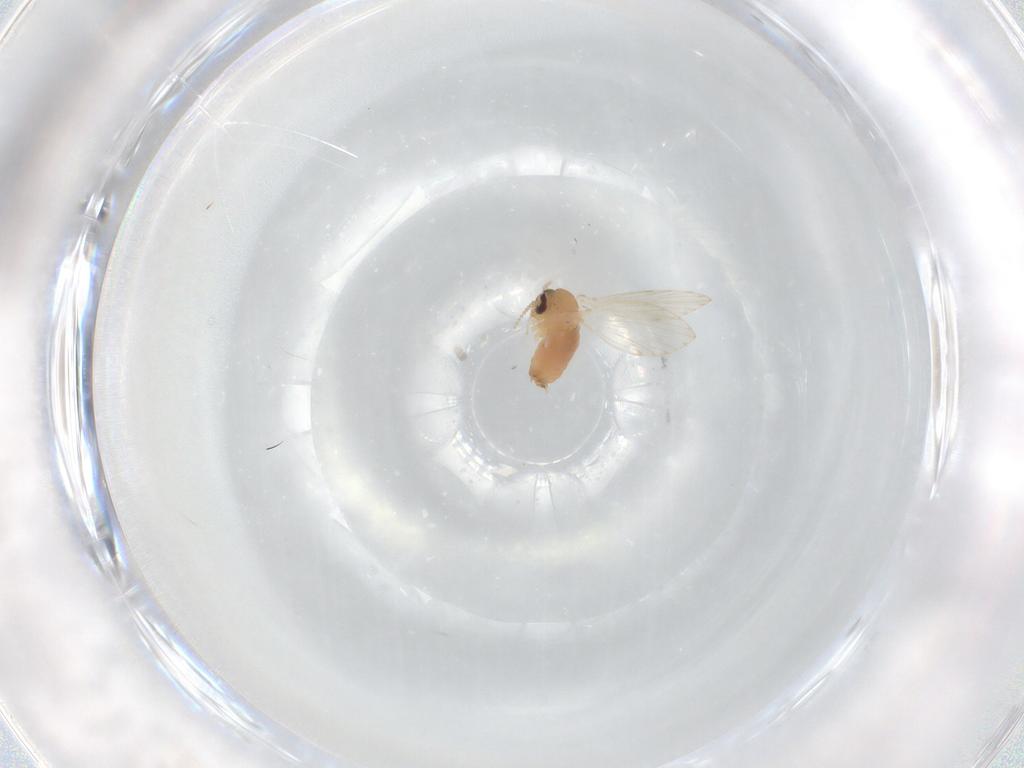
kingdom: Animalia
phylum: Arthropoda
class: Insecta
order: Diptera
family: Psychodidae
